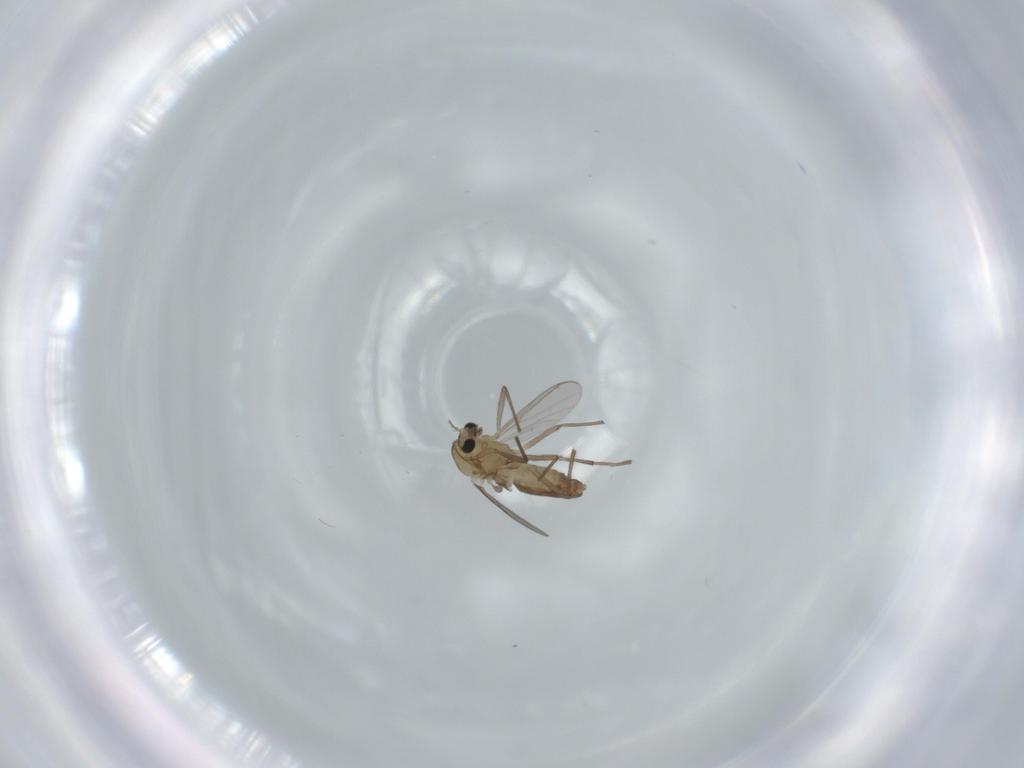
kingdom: Animalia
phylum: Arthropoda
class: Insecta
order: Diptera
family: Chironomidae
